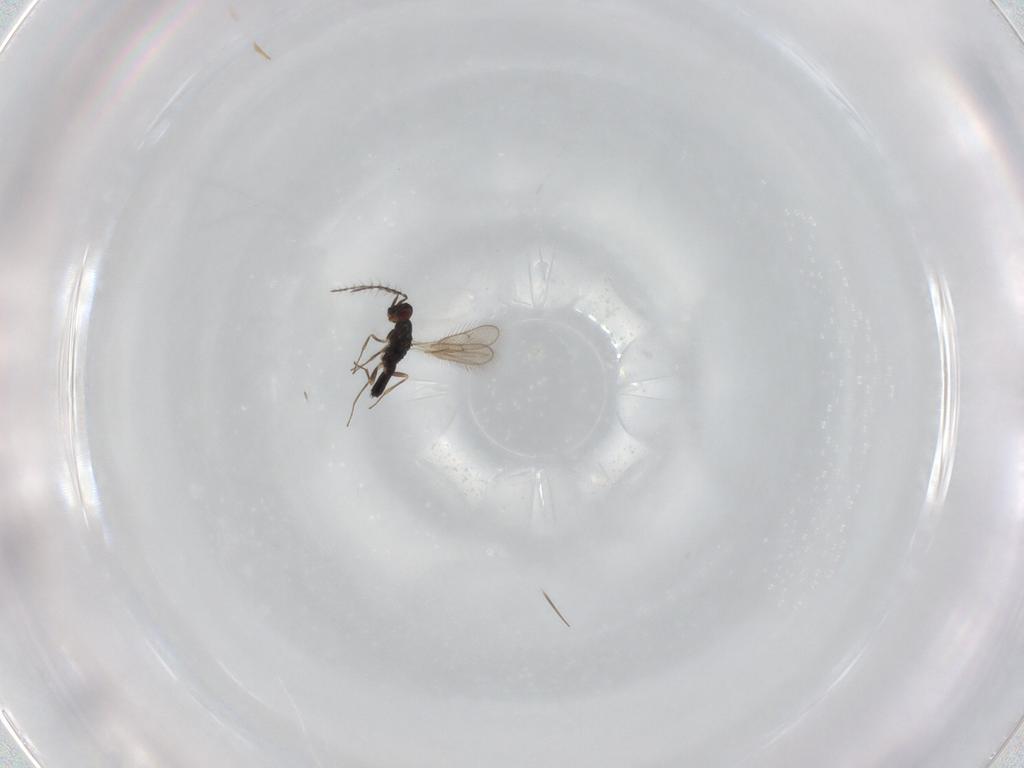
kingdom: Animalia
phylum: Arthropoda
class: Insecta
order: Hymenoptera
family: Pteromalidae
